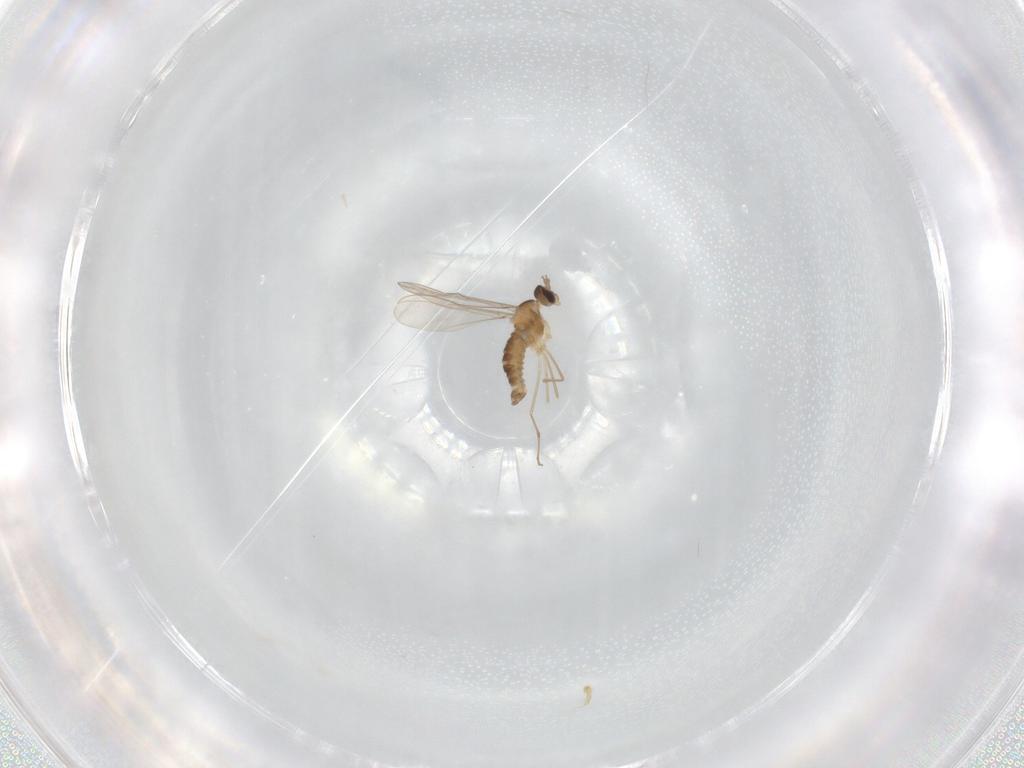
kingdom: Animalia
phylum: Arthropoda
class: Insecta
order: Diptera
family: Cecidomyiidae
